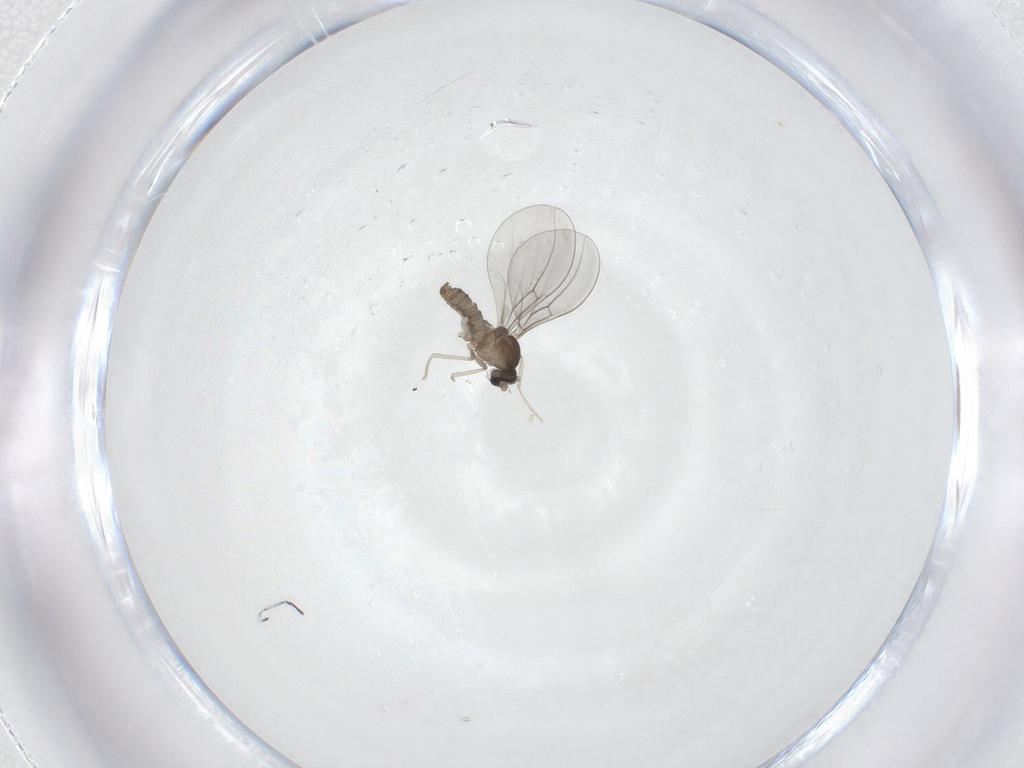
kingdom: Animalia
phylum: Arthropoda
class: Insecta
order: Diptera
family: Cecidomyiidae
